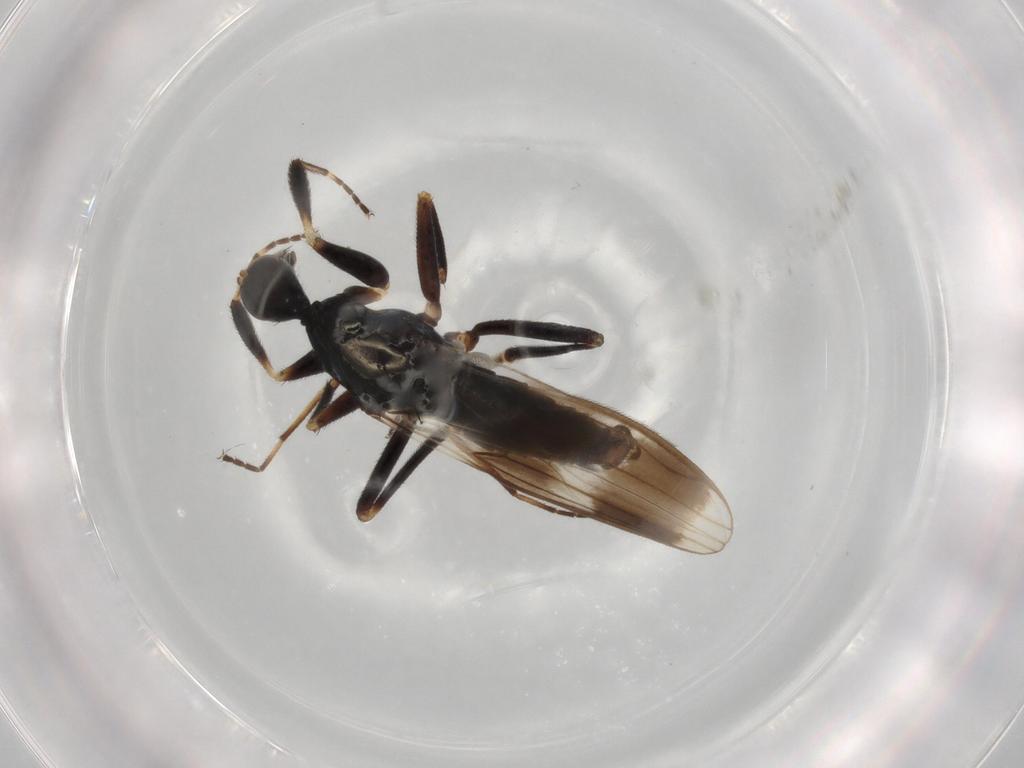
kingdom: Animalia
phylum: Arthropoda
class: Insecta
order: Diptera
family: Hybotidae
